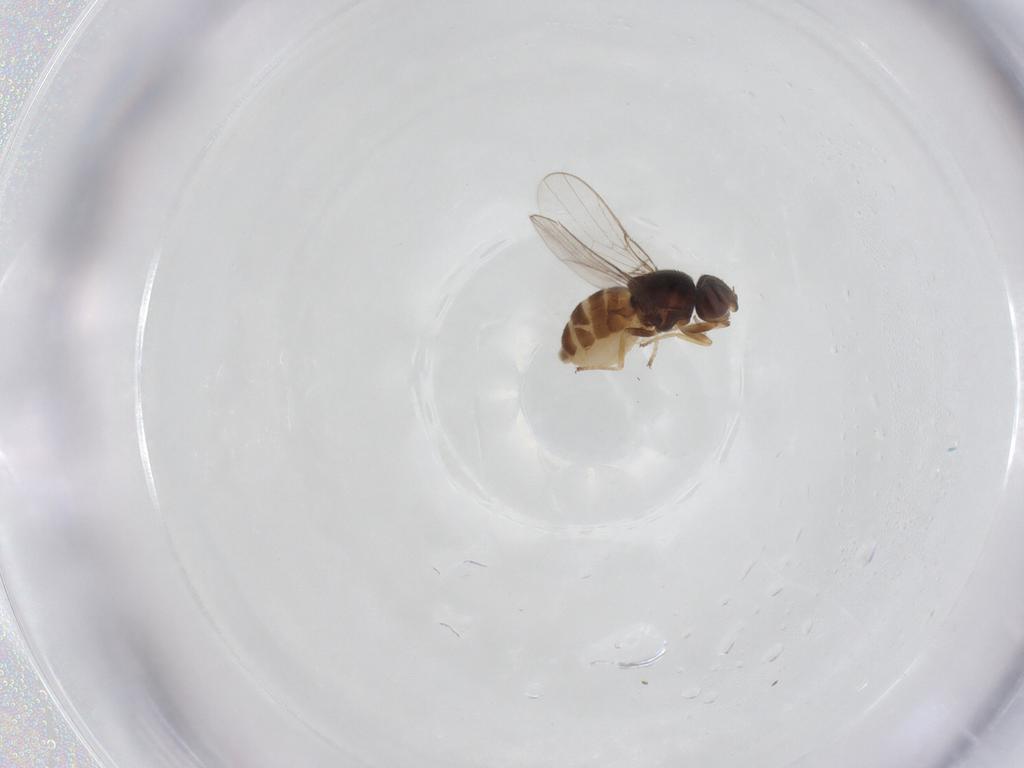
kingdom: Animalia
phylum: Arthropoda
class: Insecta
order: Diptera
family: Chloropidae
